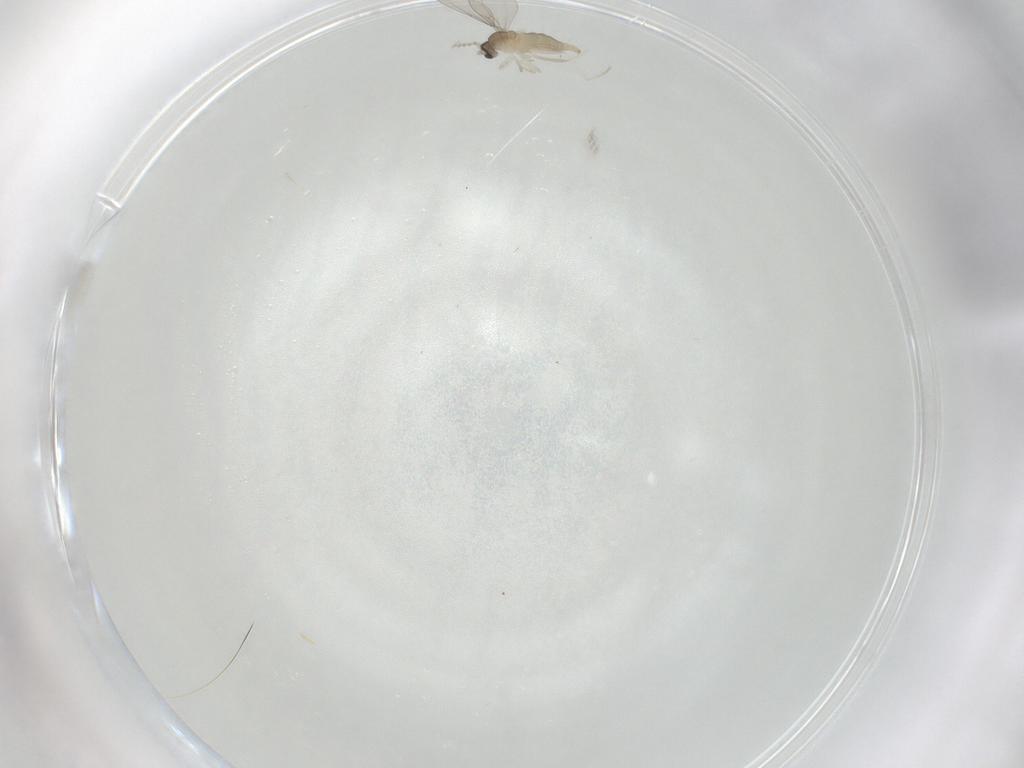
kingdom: Animalia
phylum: Arthropoda
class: Insecta
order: Diptera
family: Cecidomyiidae
